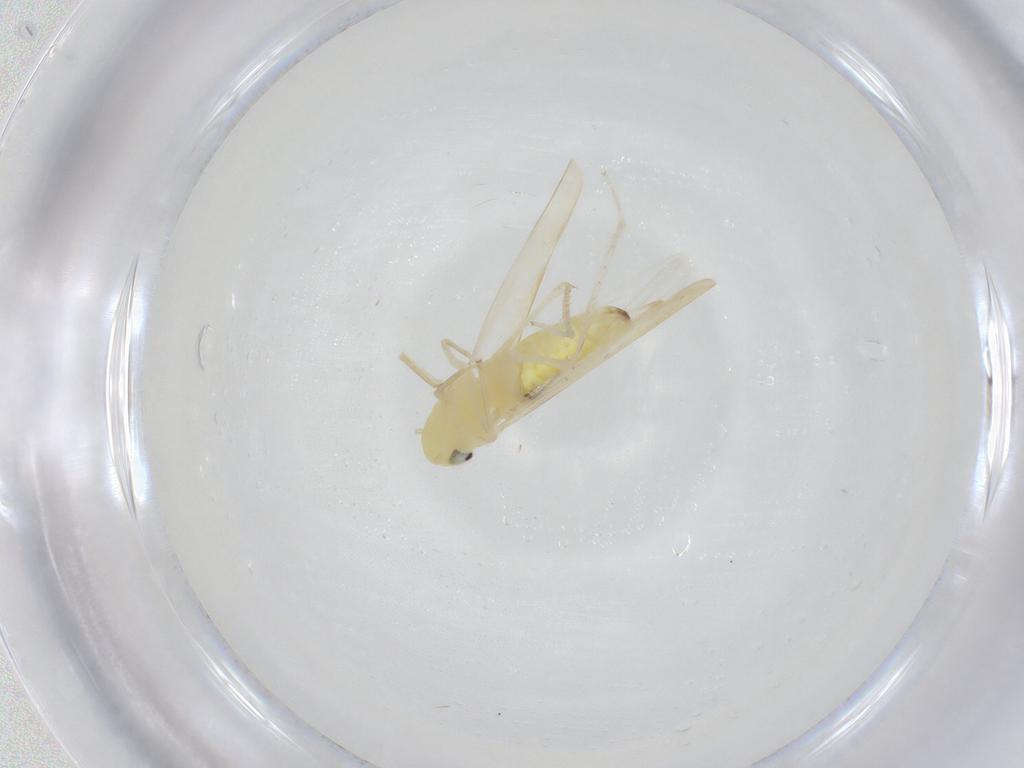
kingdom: Animalia
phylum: Arthropoda
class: Insecta
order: Hemiptera
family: Cicadellidae
